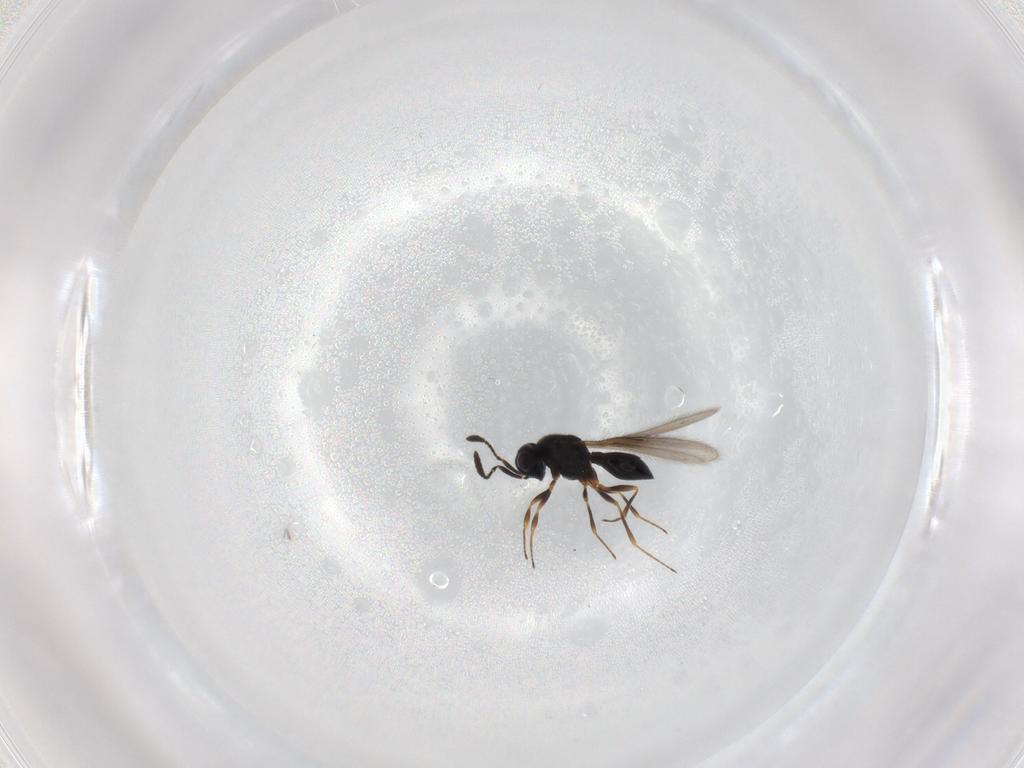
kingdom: Animalia
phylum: Arthropoda
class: Insecta
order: Hymenoptera
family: Scelionidae
